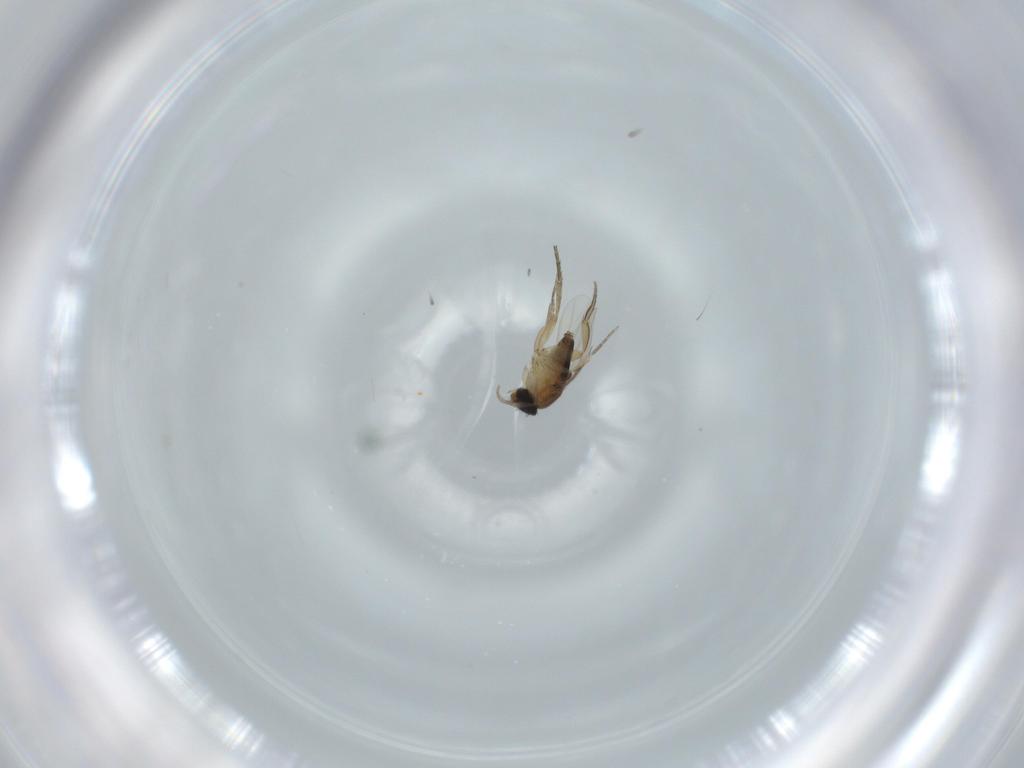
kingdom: Animalia
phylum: Arthropoda
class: Insecta
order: Diptera
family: Phoridae
